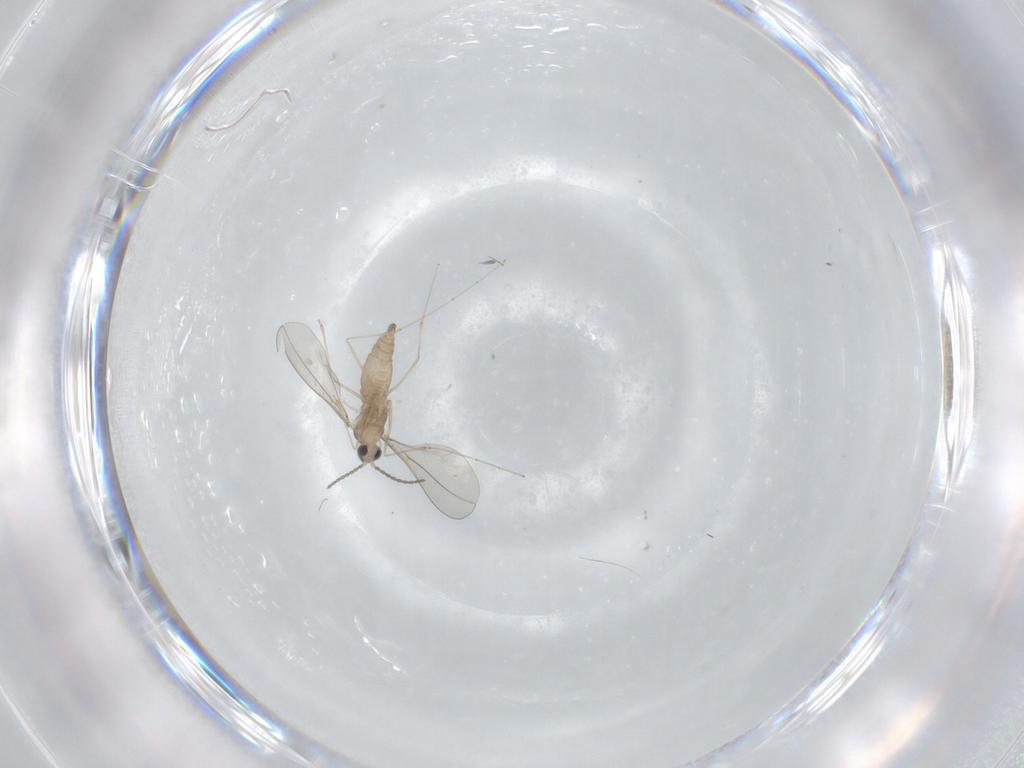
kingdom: Animalia
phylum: Arthropoda
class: Insecta
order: Diptera
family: Cecidomyiidae
